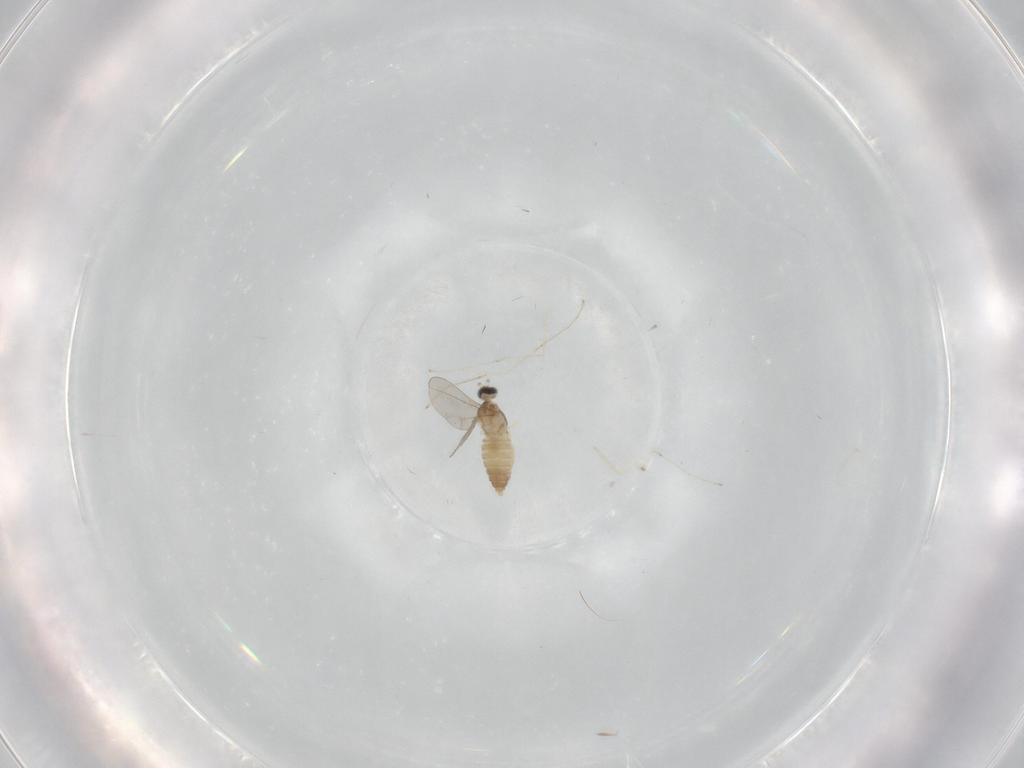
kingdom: Animalia
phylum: Arthropoda
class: Insecta
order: Diptera
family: Cecidomyiidae
